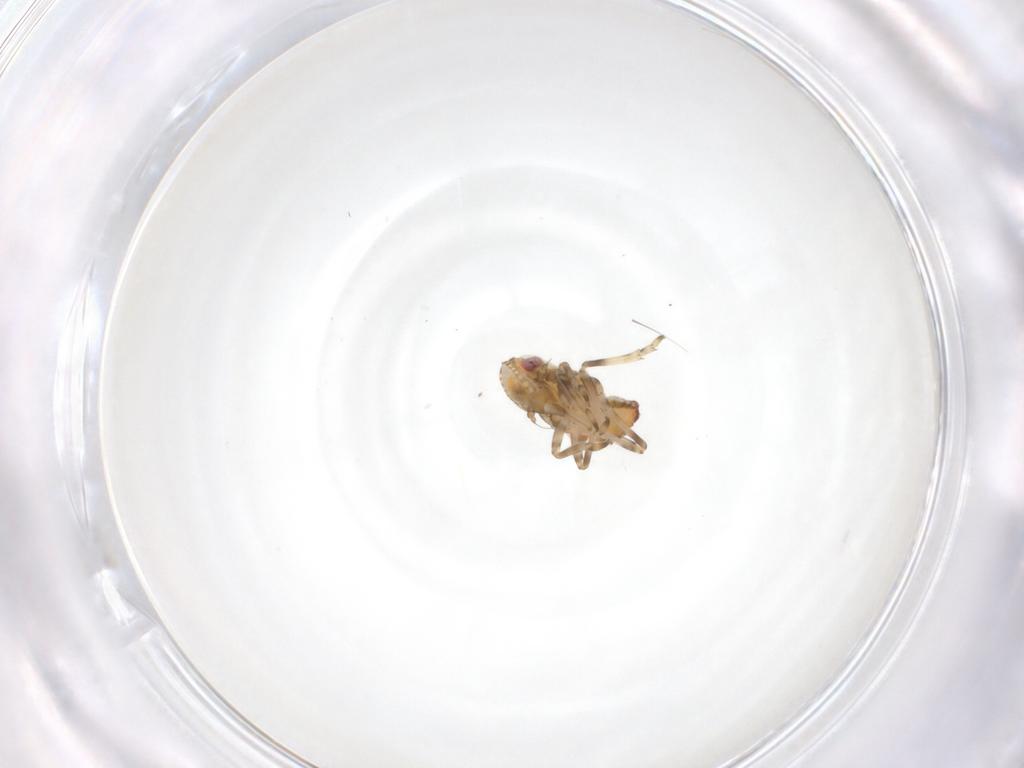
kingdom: Animalia
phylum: Arthropoda
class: Insecta
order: Hemiptera
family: Tropiduchidae
